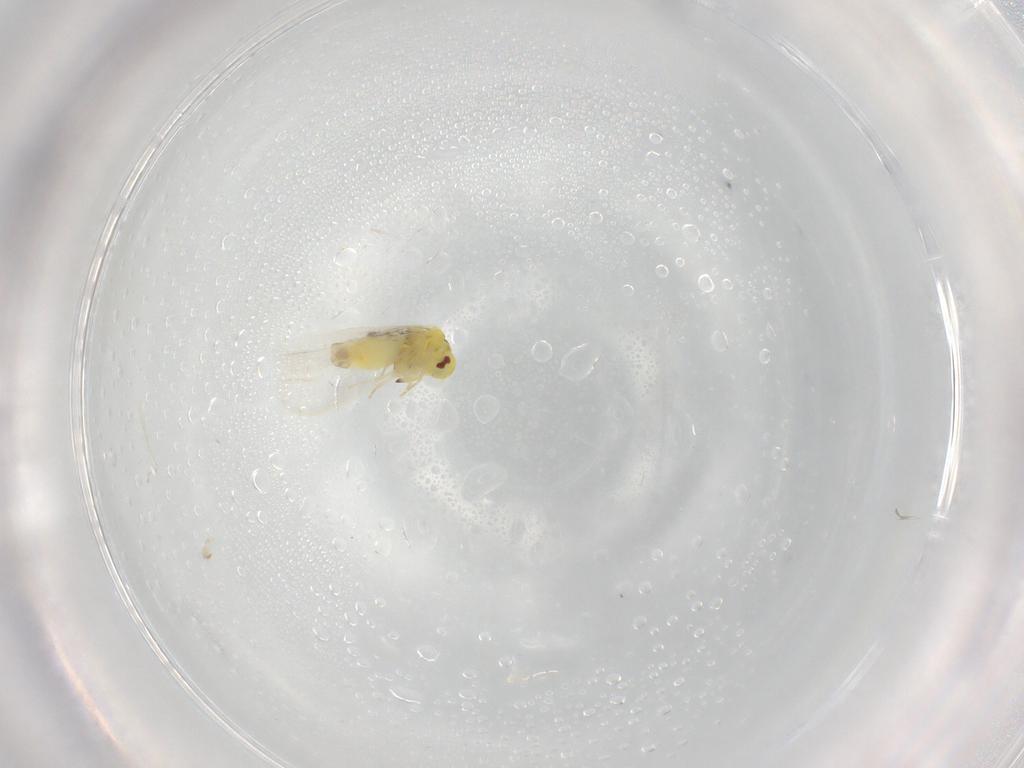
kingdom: Animalia
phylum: Arthropoda
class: Insecta
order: Hemiptera
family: Aleyrodidae
